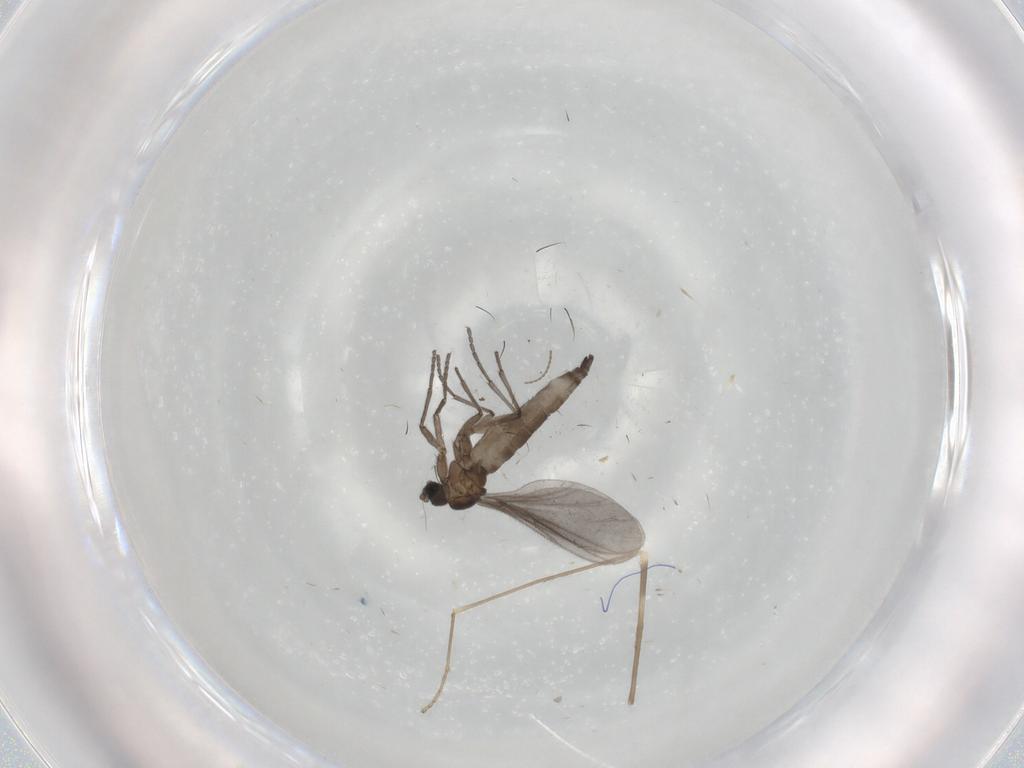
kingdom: Animalia
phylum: Arthropoda
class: Insecta
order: Diptera
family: Sciaridae
